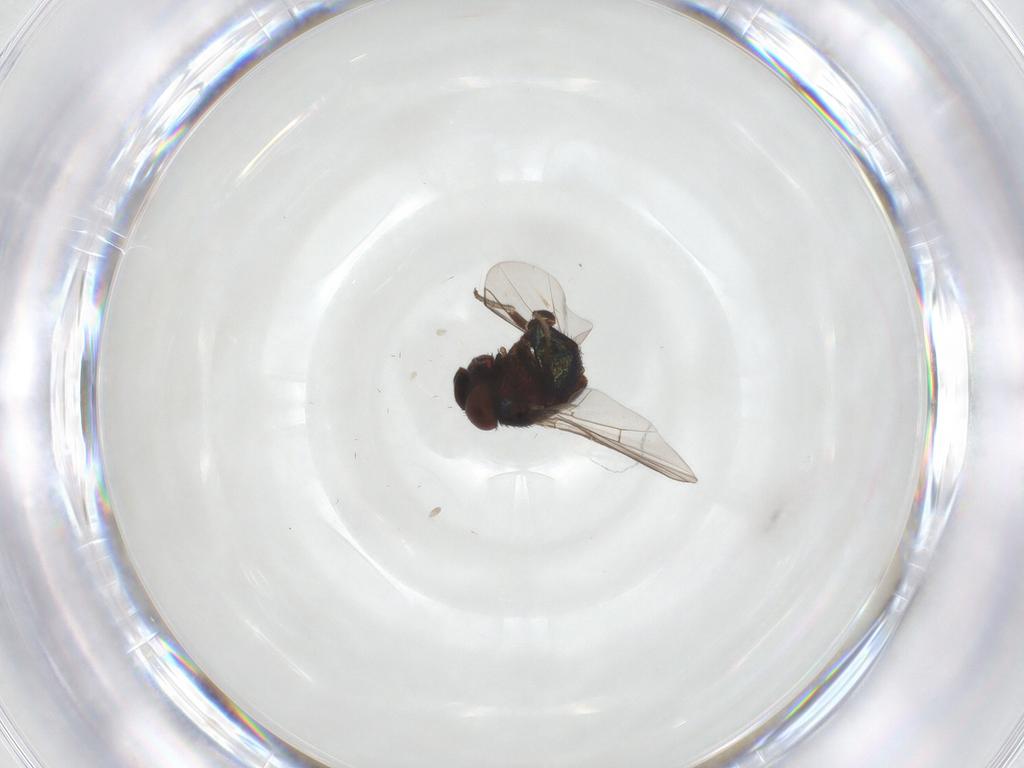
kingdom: Animalia
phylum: Arthropoda
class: Insecta
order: Diptera
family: Cryptochetidae
